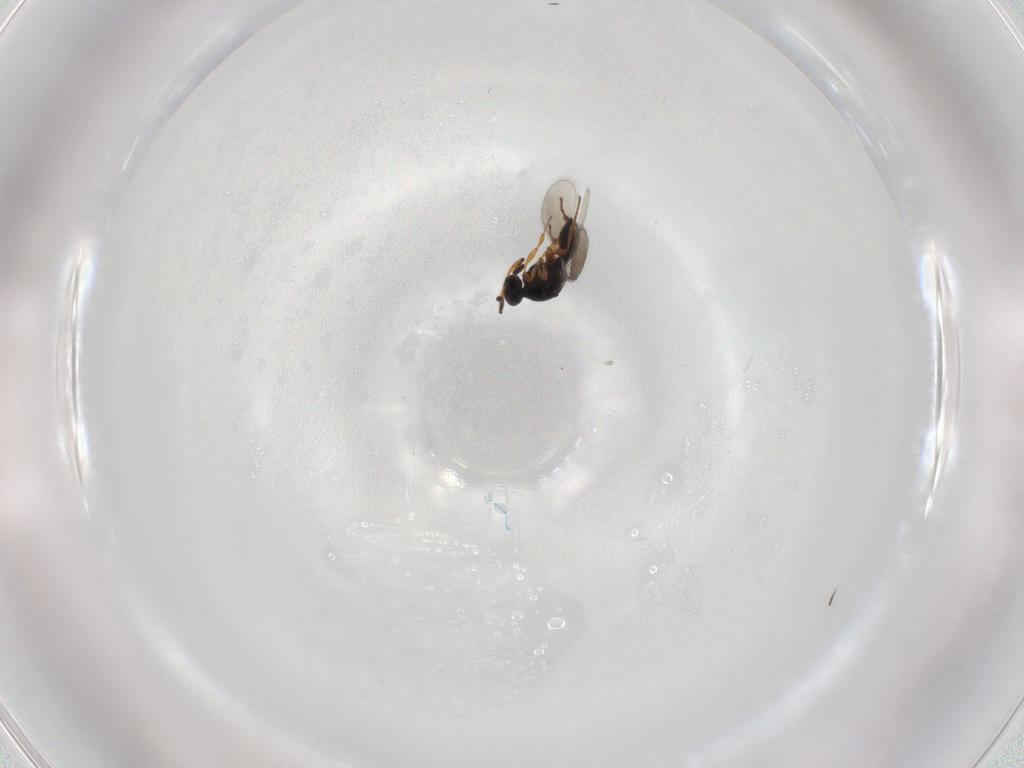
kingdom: Animalia
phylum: Arthropoda
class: Insecta
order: Hymenoptera
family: Platygastridae
